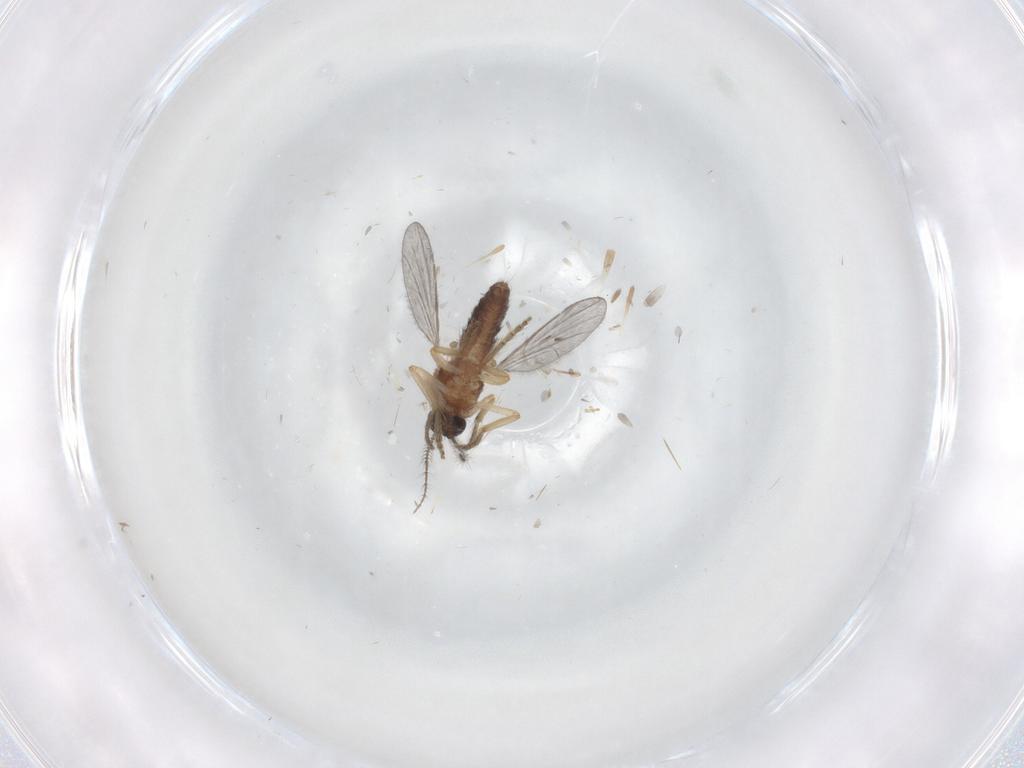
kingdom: Animalia
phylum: Arthropoda
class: Insecta
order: Diptera
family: Ceratopogonidae
